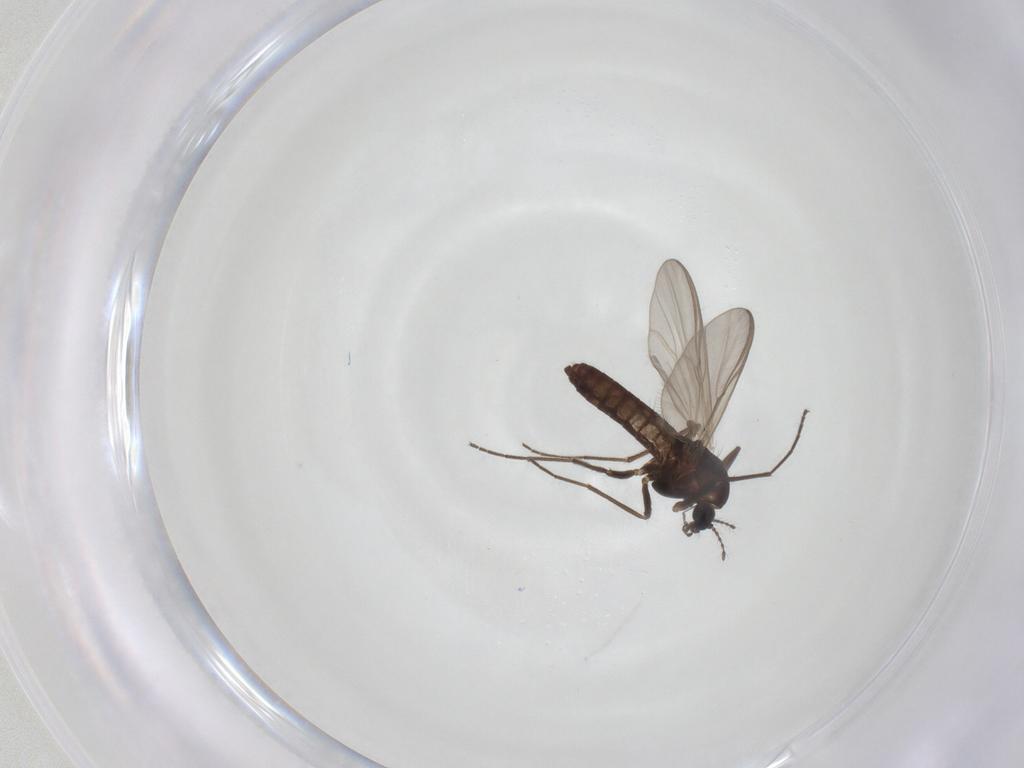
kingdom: Animalia
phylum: Arthropoda
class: Insecta
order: Diptera
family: Chironomidae
